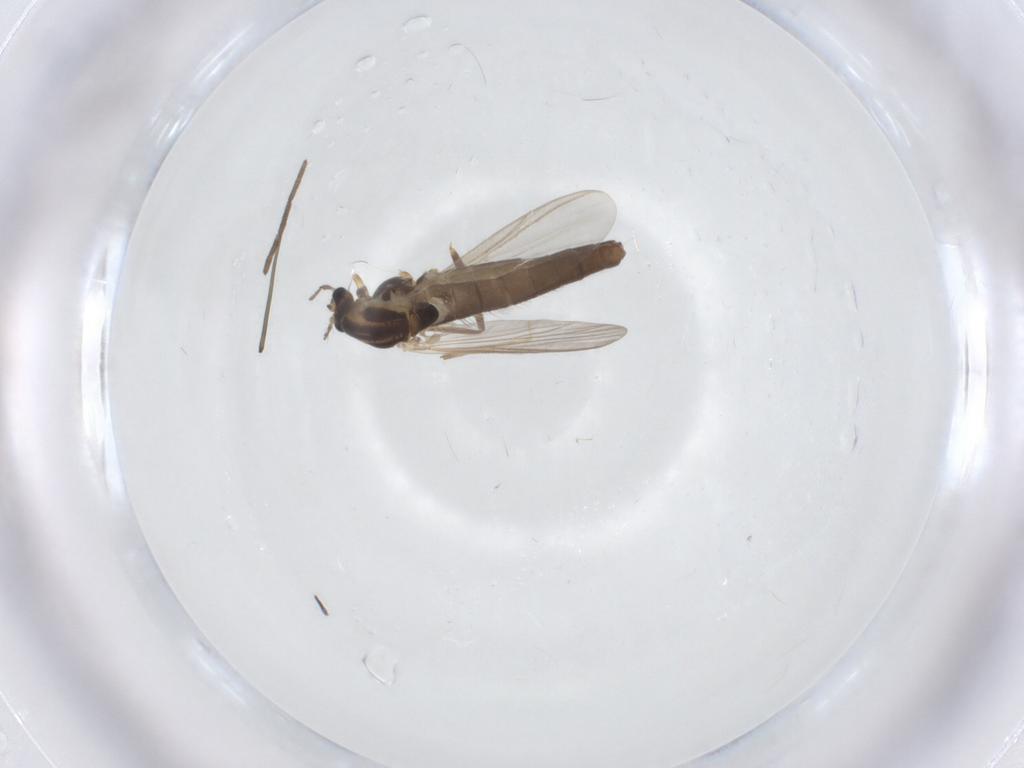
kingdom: Animalia
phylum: Arthropoda
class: Insecta
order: Diptera
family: Chironomidae
